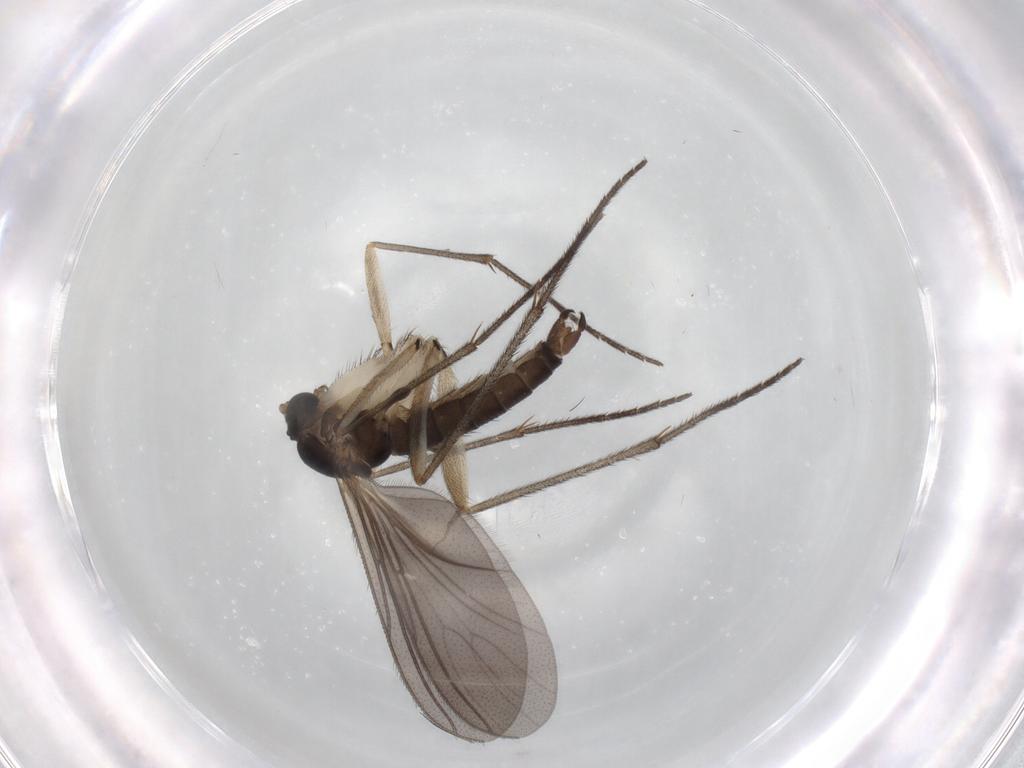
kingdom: Animalia
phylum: Arthropoda
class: Insecta
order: Diptera
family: Sciaridae
